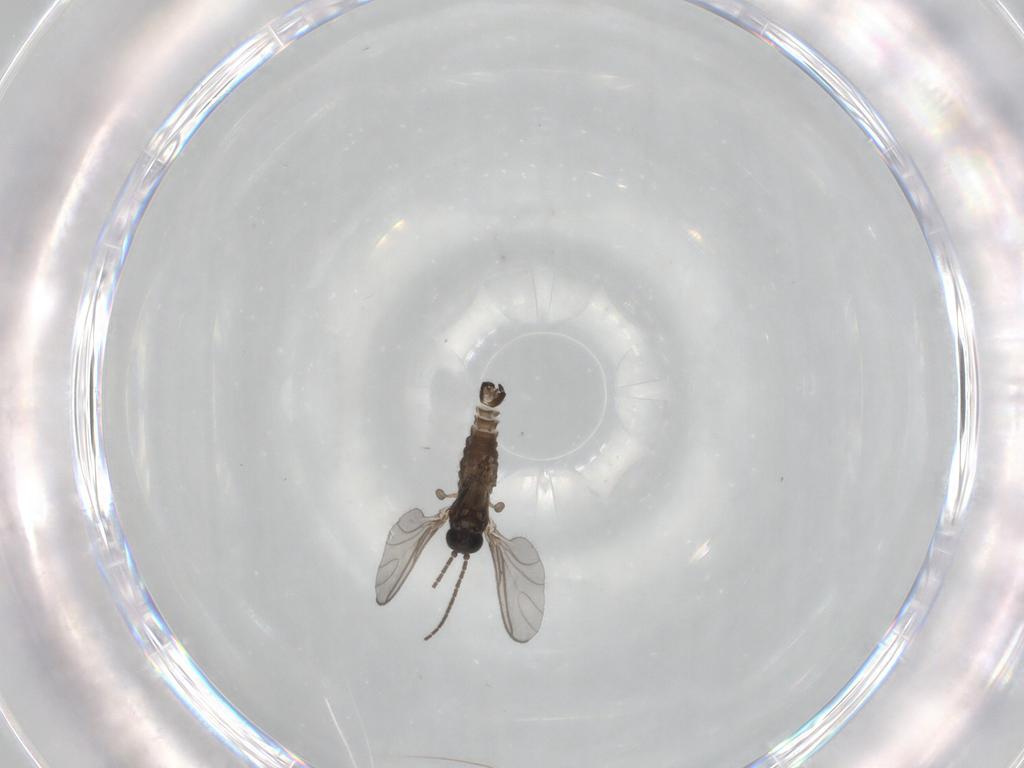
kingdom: Animalia
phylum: Arthropoda
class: Insecta
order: Diptera
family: Sciaridae
